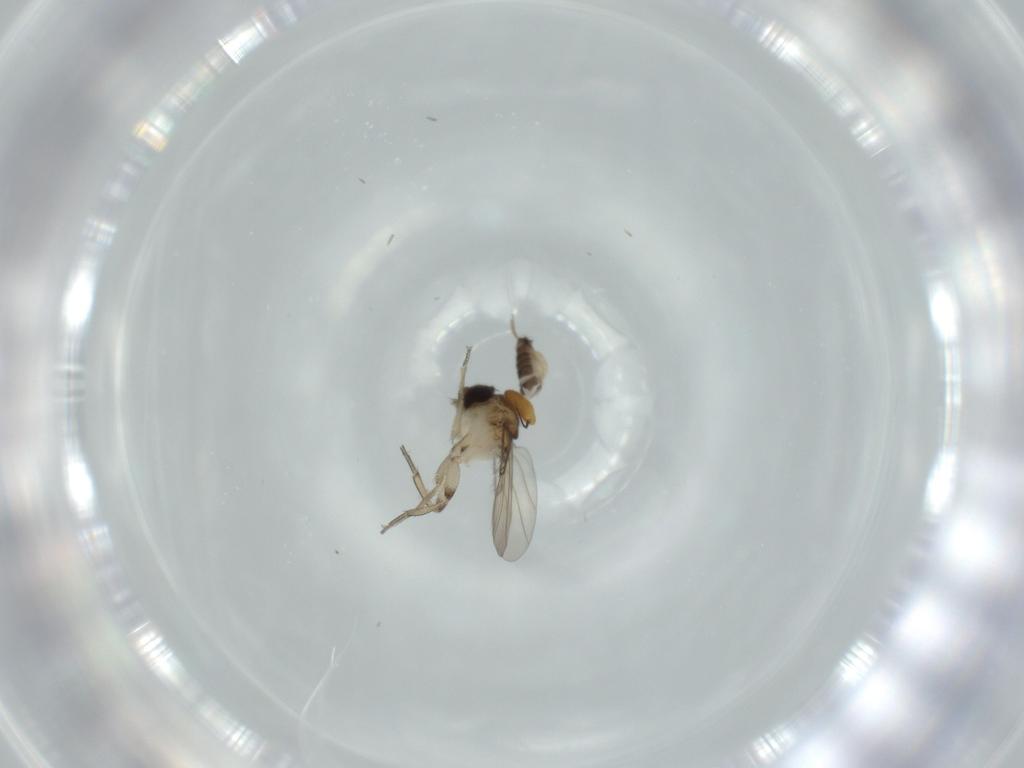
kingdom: Animalia
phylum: Arthropoda
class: Insecta
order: Diptera
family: Phoridae
